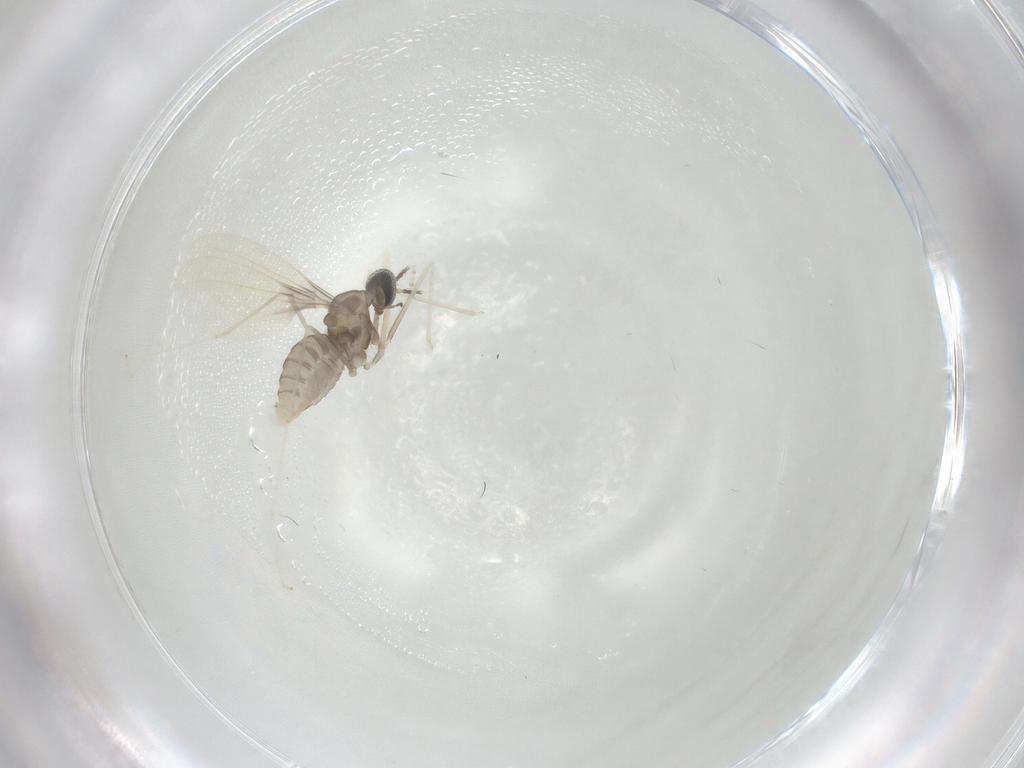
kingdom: Animalia
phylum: Arthropoda
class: Insecta
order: Diptera
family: Cecidomyiidae
